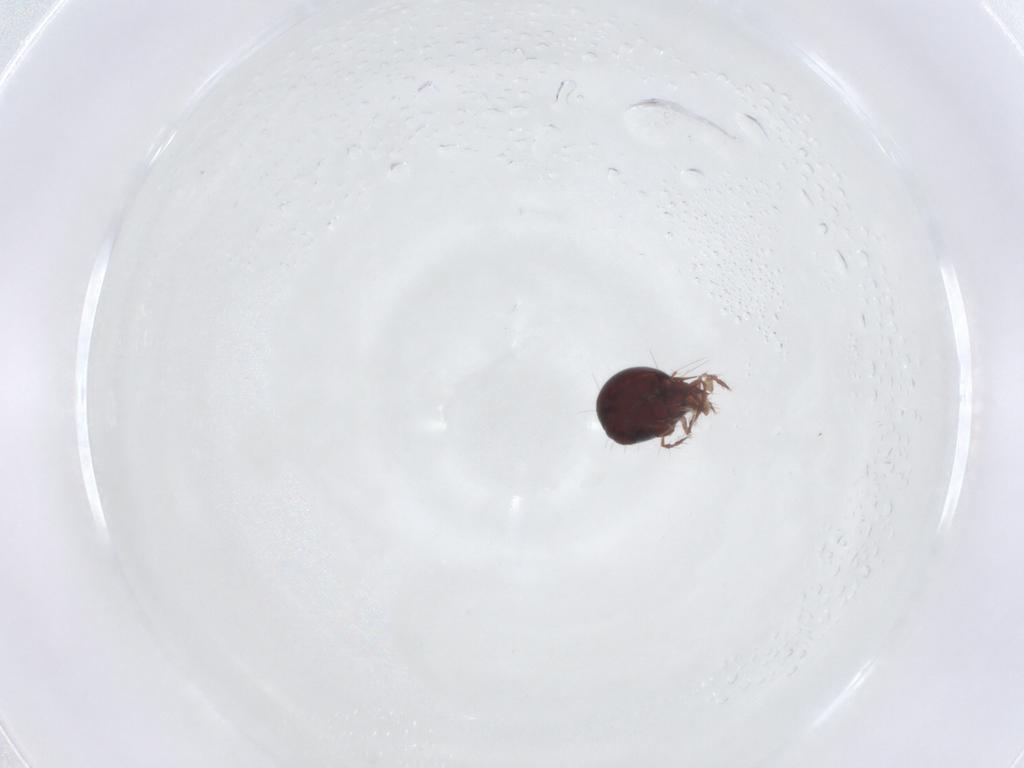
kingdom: Animalia
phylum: Arthropoda
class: Arachnida
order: Sarcoptiformes
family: Ceratoppiidae
